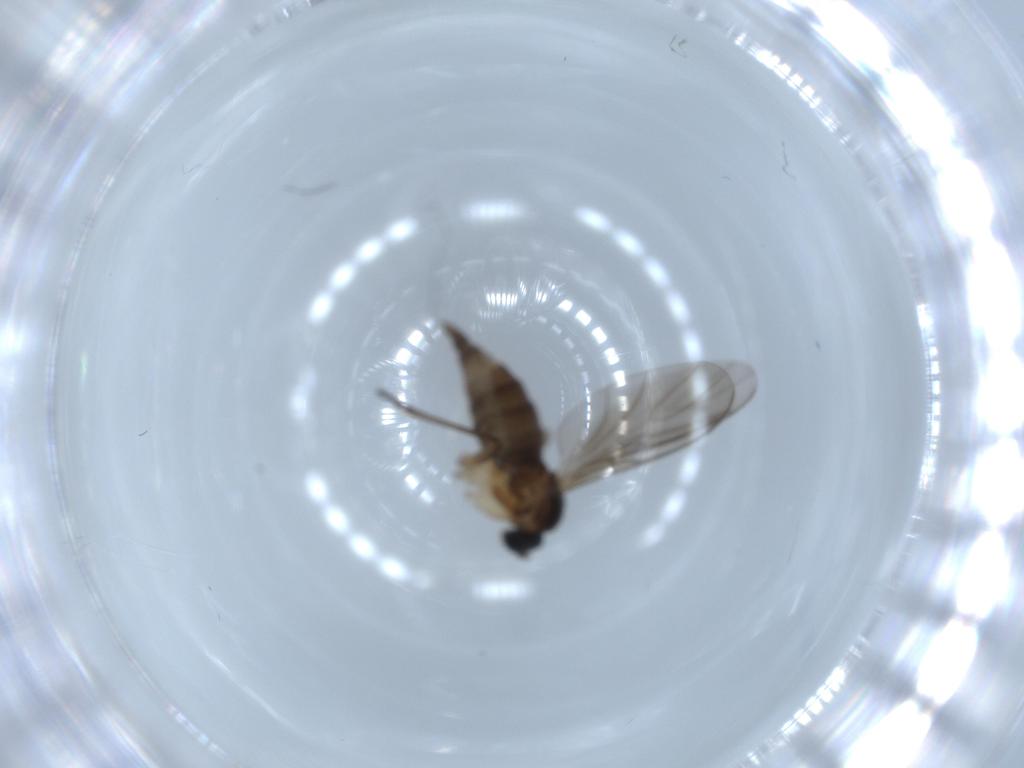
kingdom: Animalia
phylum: Arthropoda
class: Insecta
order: Diptera
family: Sciaridae
